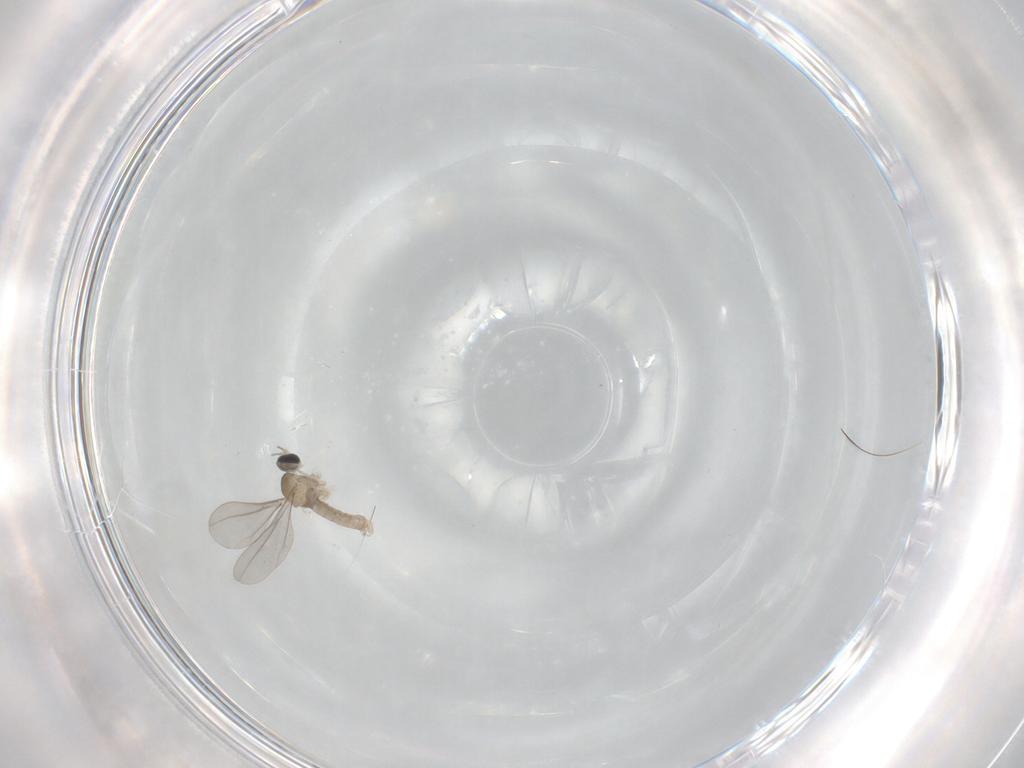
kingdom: Animalia
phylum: Arthropoda
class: Insecta
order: Diptera
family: Cecidomyiidae
